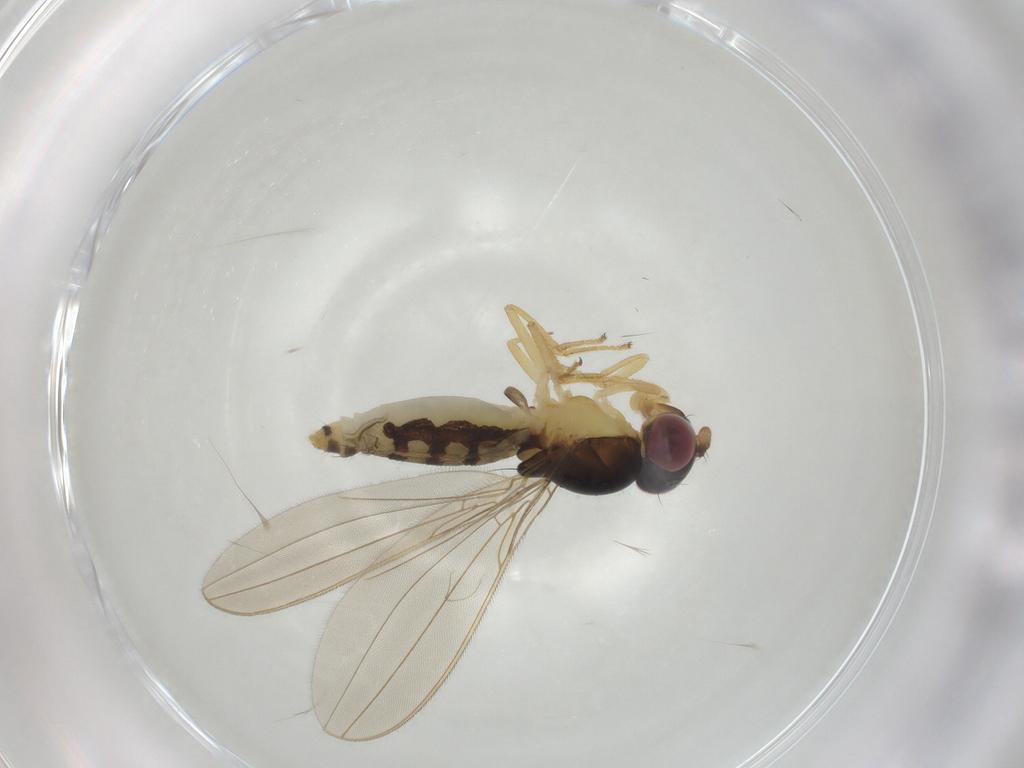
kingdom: Animalia
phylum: Arthropoda
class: Insecta
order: Diptera
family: Asteiidae
